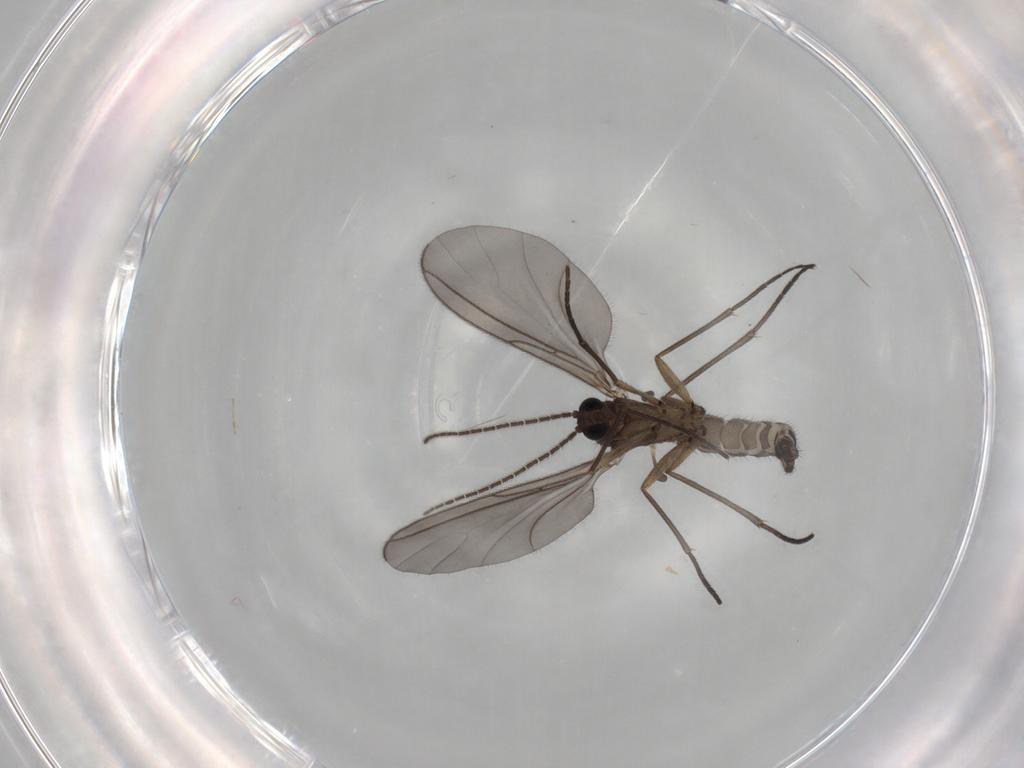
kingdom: Animalia
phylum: Arthropoda
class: Insecta
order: Diptera
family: Sciaridae
